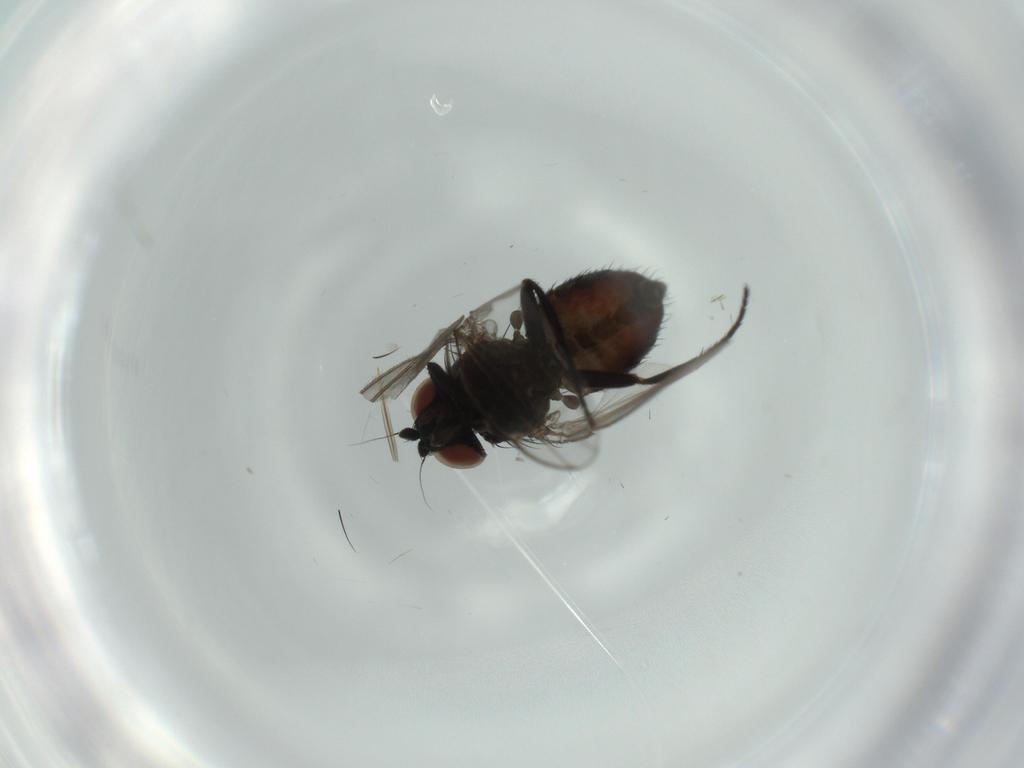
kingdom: Animalia
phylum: Arthropoda
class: Insecta
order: Diptera
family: Milichiidae
